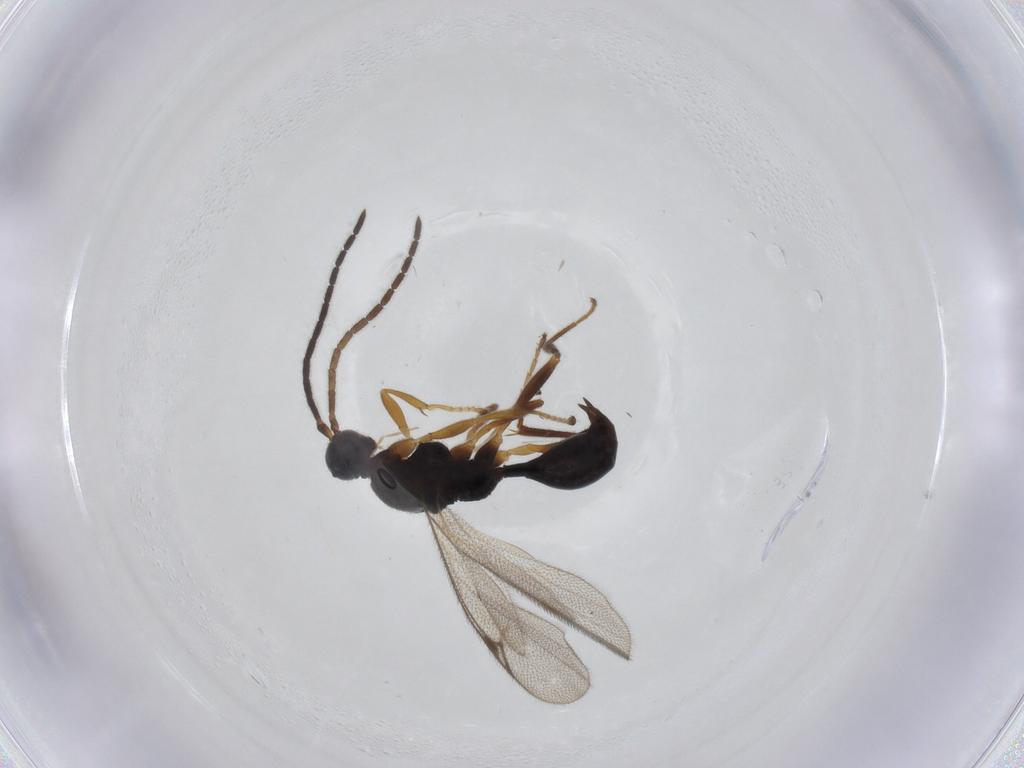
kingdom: Animalia
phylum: Arthropoda
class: Insecta
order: Hymenoptera
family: Proctotrupidae
